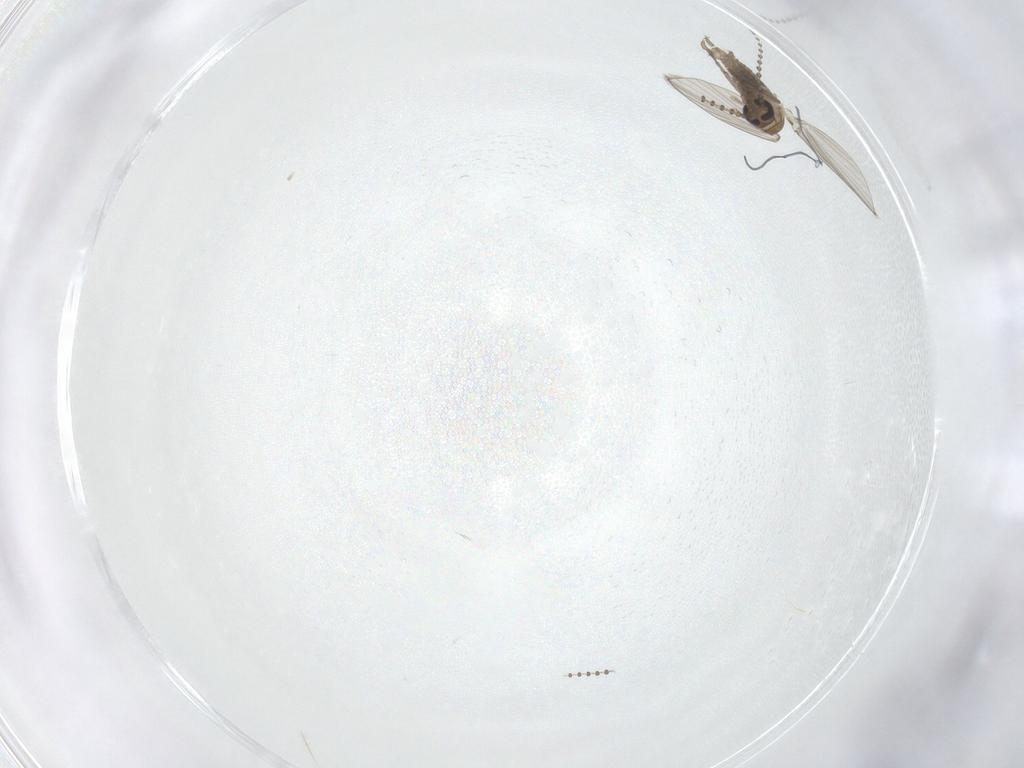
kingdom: Animalia
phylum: Arthropoda
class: Insecta
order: Diptera
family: Psychodidae
